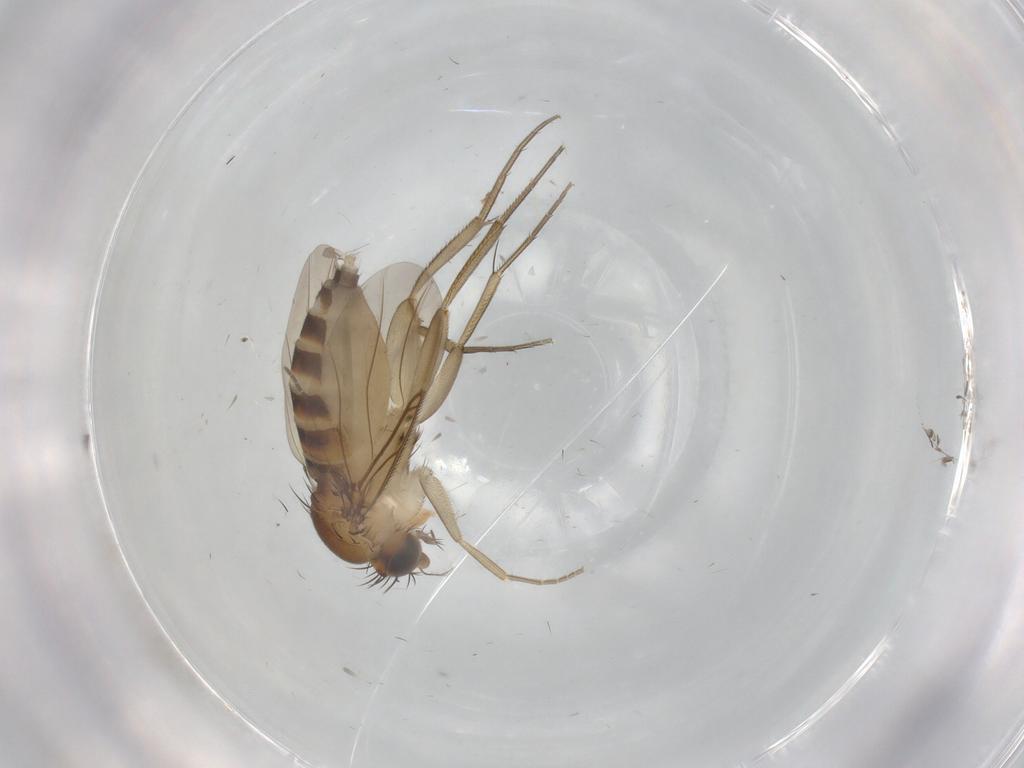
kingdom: Animalia
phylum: Arthropoda
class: Insecta
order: Diptera
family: Phoridae
